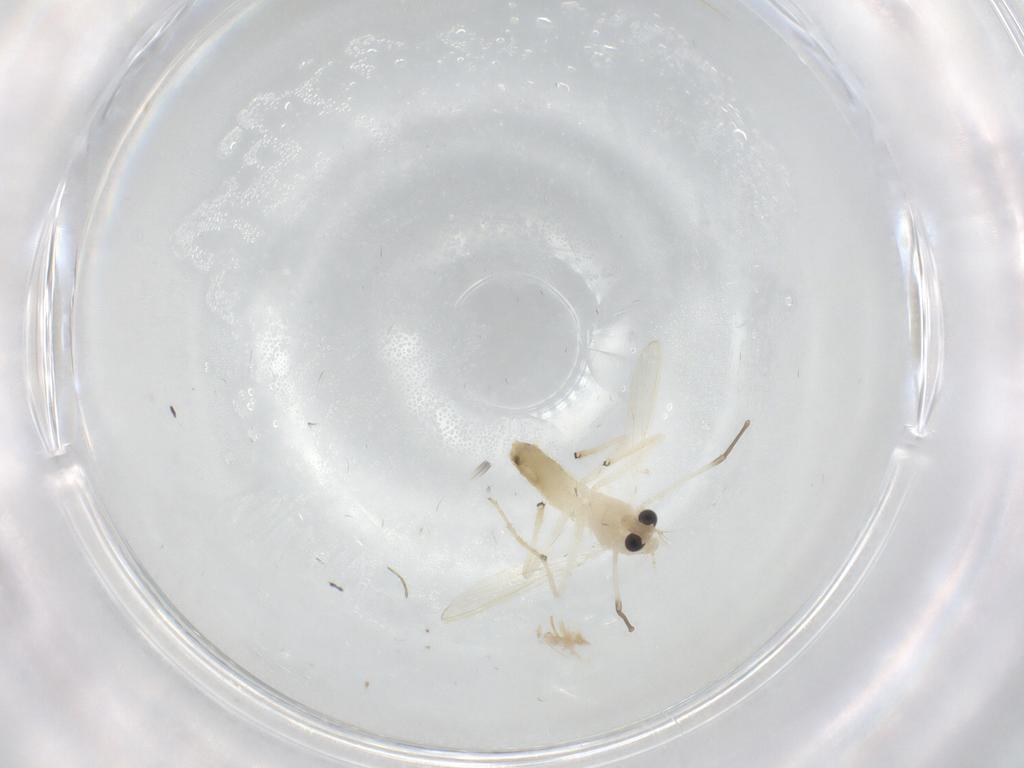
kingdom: Animalia
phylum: Arthropoda
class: Insecta
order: Diptera
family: Chironomidae
